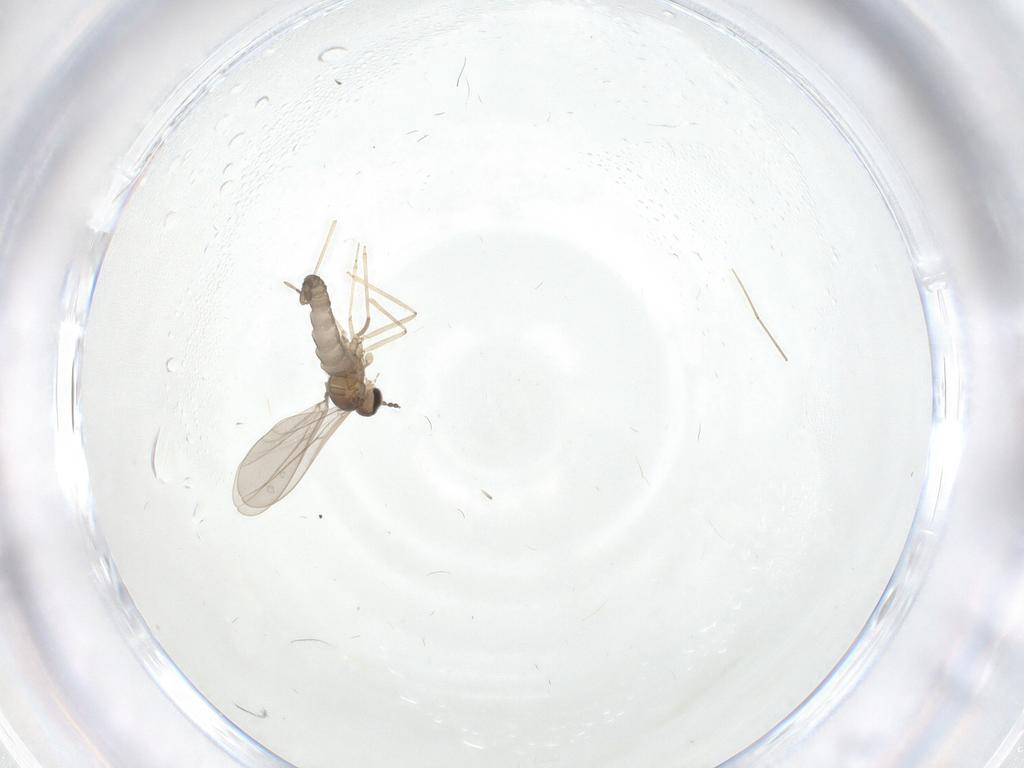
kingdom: Animalia
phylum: Arthropoda
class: Insecta
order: Diptera
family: Cecidomyiidae
